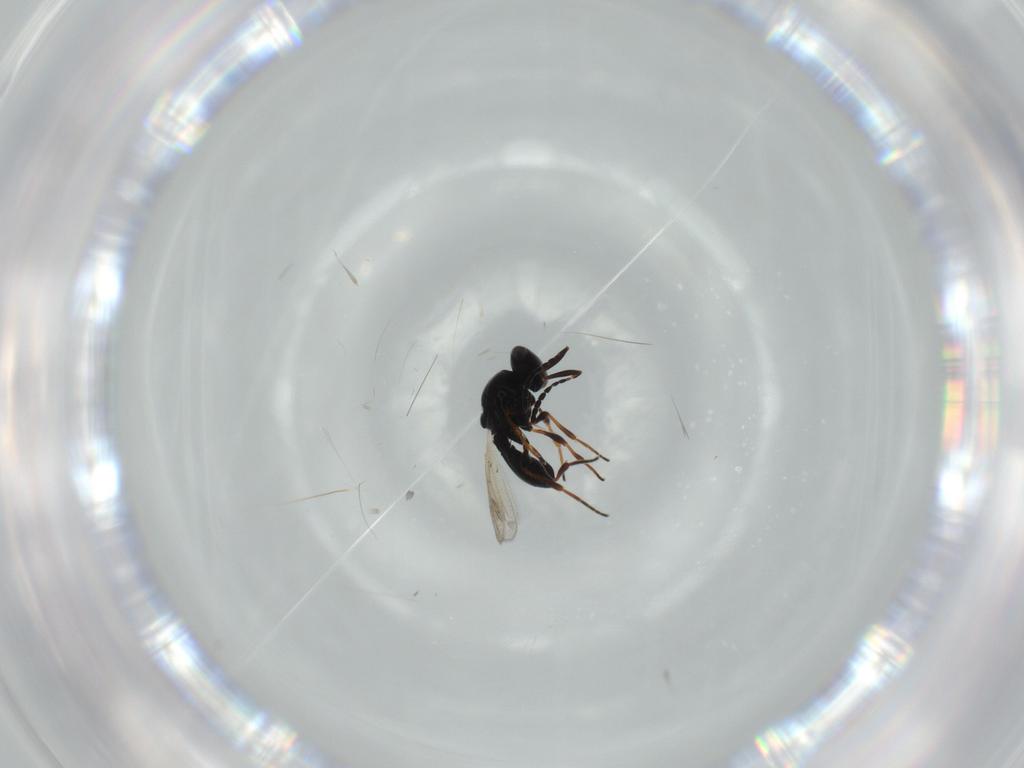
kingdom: Animalia
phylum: Arthropoda
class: Insecta
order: Hymenoptera
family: Platygastridae
